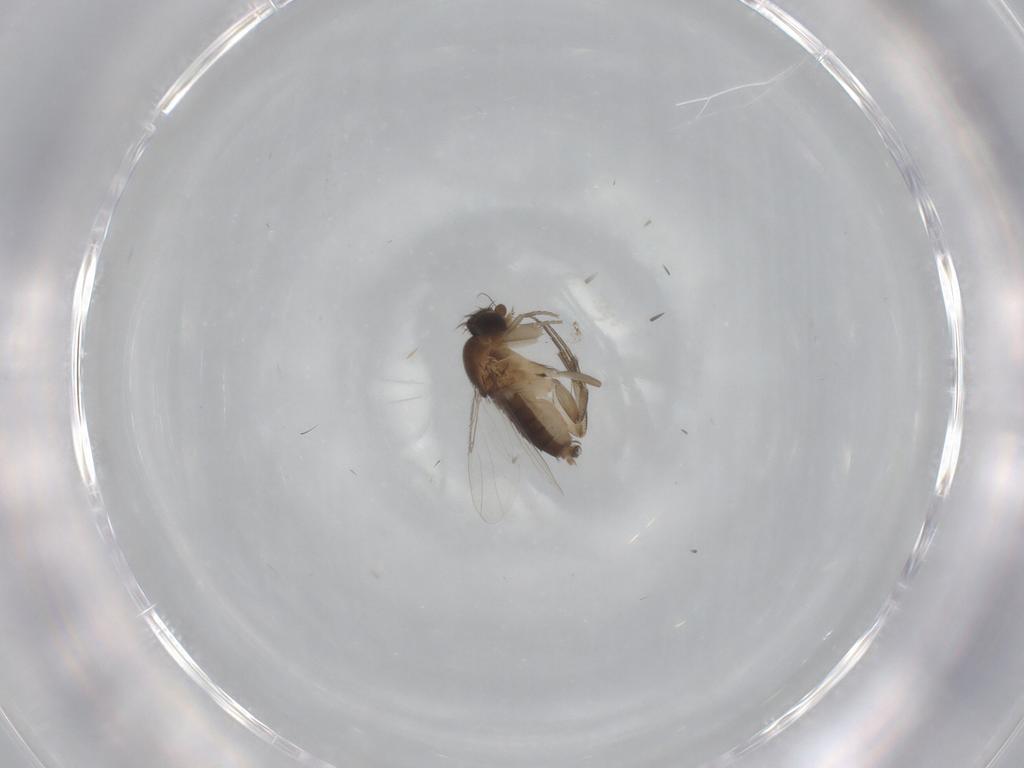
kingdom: Animalia
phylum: Arthropoda
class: Insecta
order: Diptera
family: Phoridae
